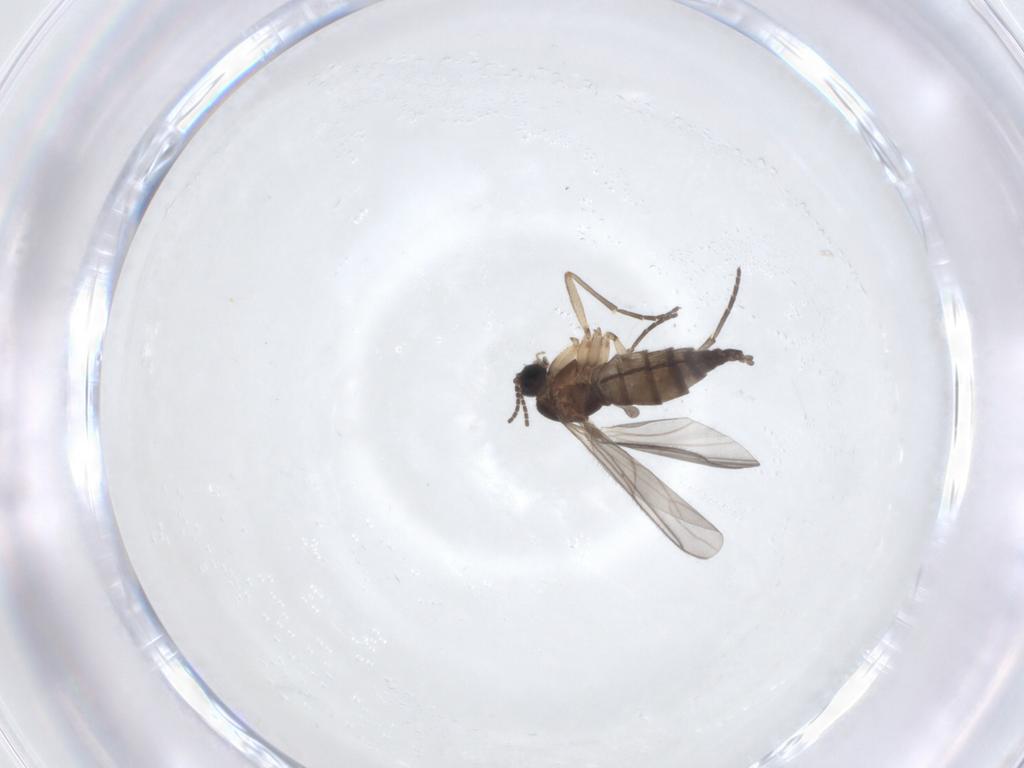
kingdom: Animalia
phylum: Arthropoda
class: Insecta
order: Diptera
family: Sciaridae
